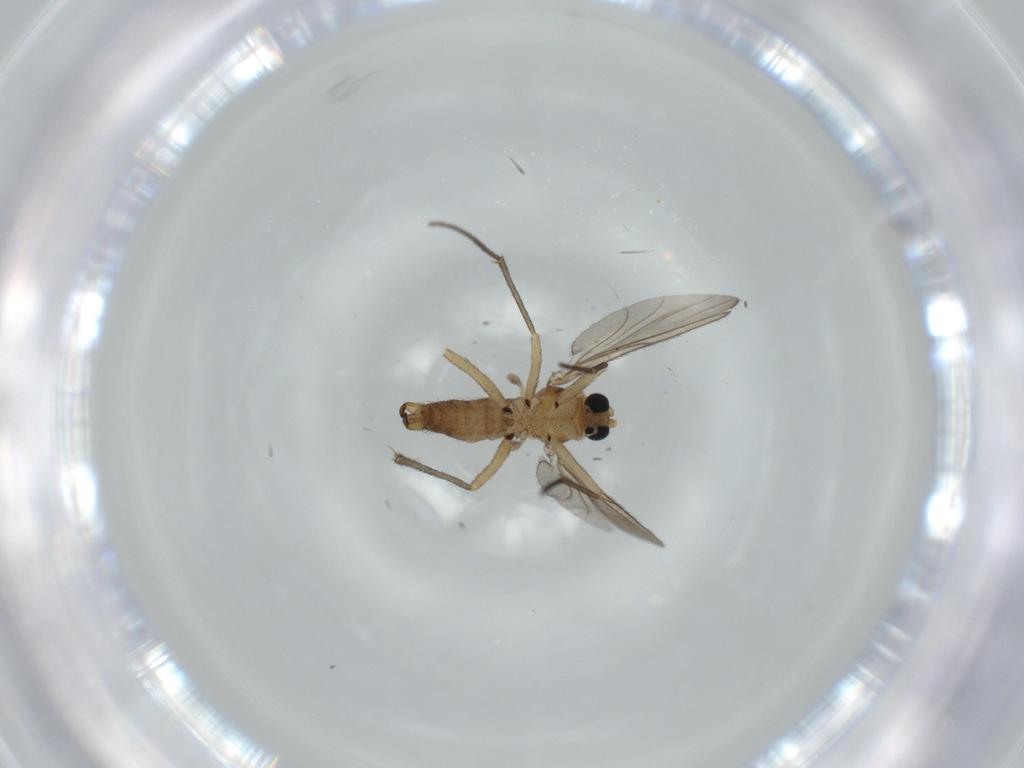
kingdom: Animalia
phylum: Arthropoda
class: Insecta
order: Diptera
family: Sciaridae
